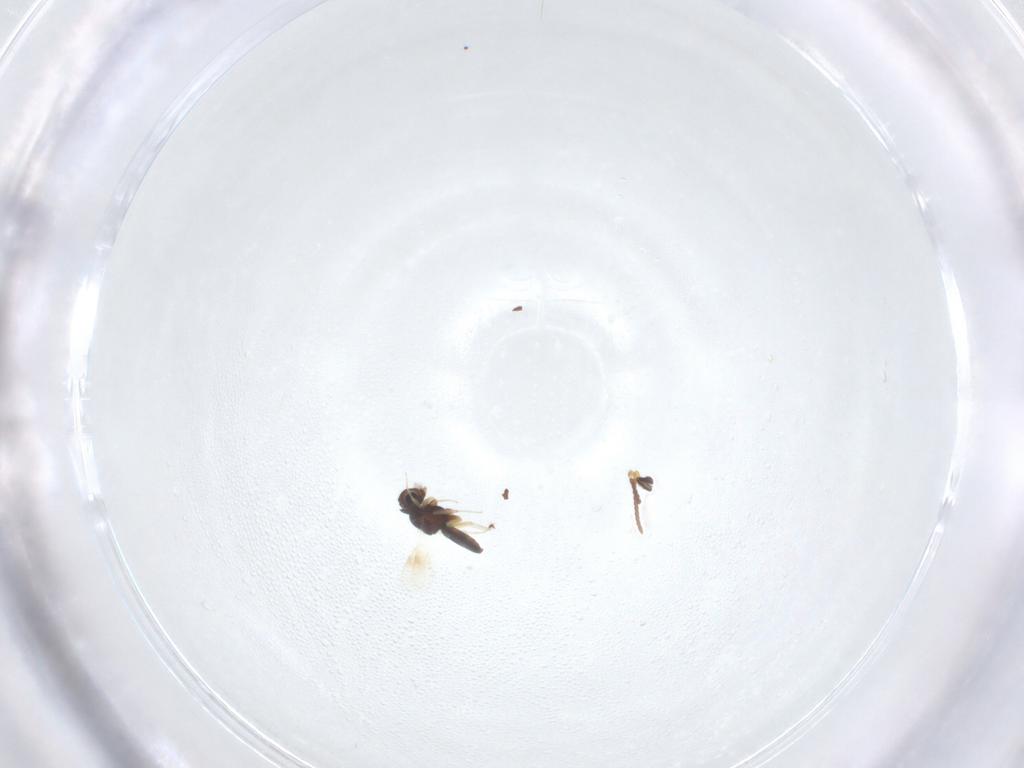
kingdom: Animalia
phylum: Arthropoda
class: Insecta
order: Hymenoptera
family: Scelionidae
